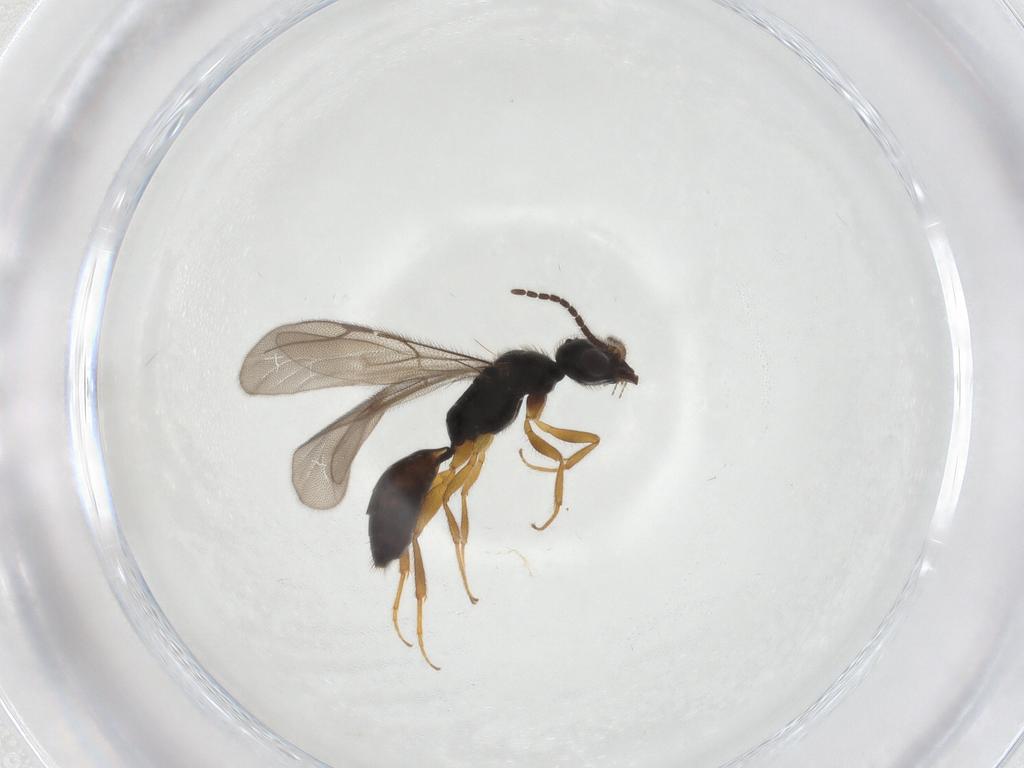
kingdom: Animalia
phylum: Arthropoda
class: Insecta
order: Hymenoptera
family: Bethylidae
